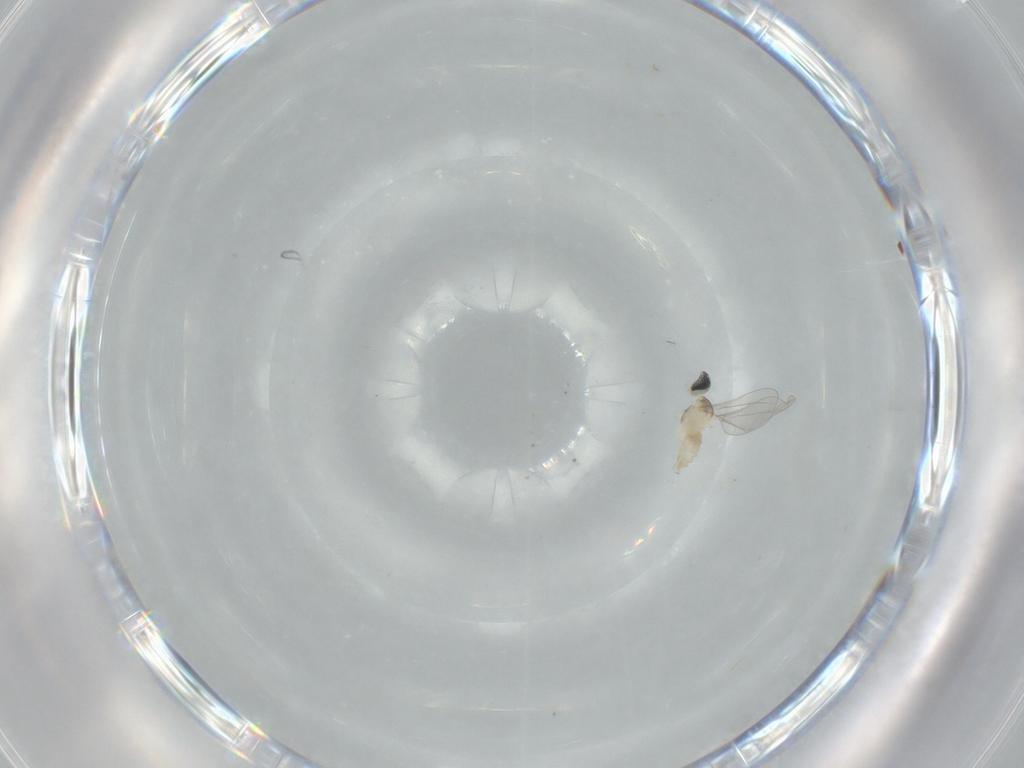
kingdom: Animalia
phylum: Arthropoda
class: Insecta
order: Diptera
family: Cecidomyiidae
